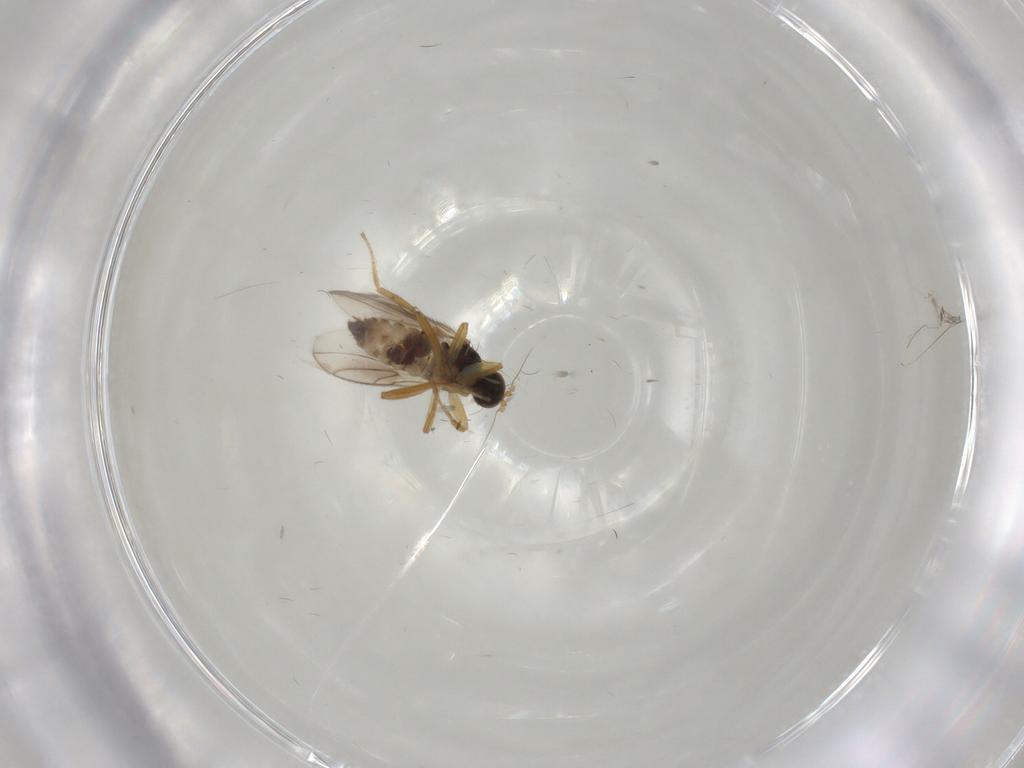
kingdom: Animalia
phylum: Arthropoda
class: Insecta
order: Diptera
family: Hybotidae
